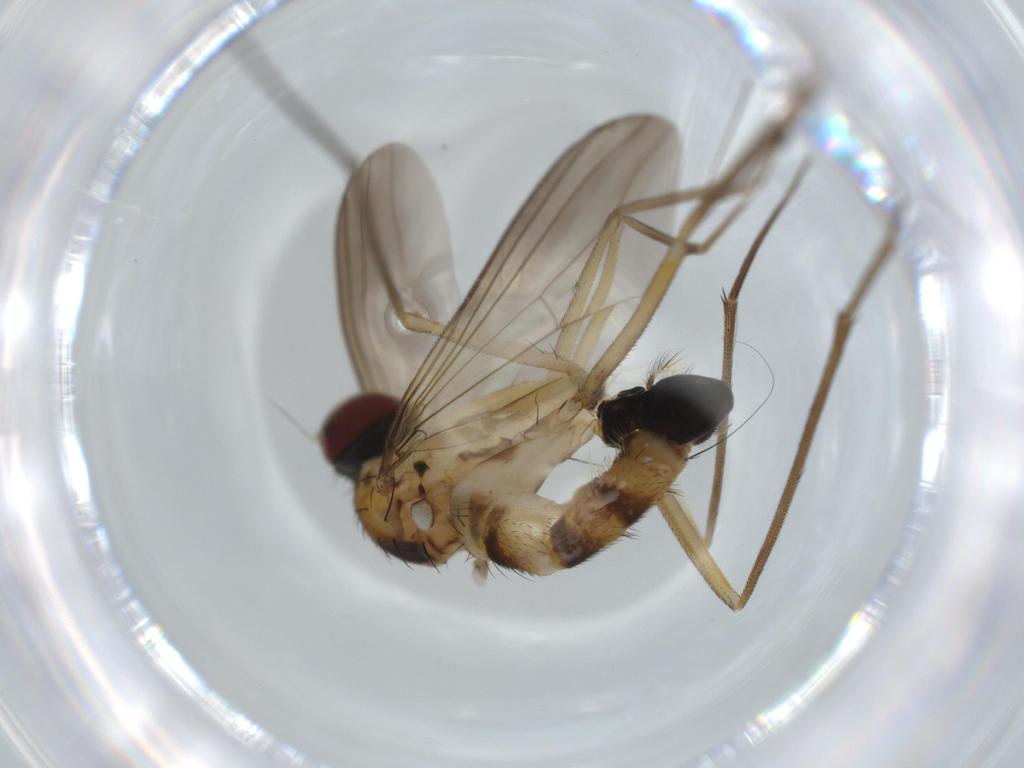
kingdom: Animalia
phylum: Arthropoda
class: Insecta
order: Diptera
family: Dolichopodidae
